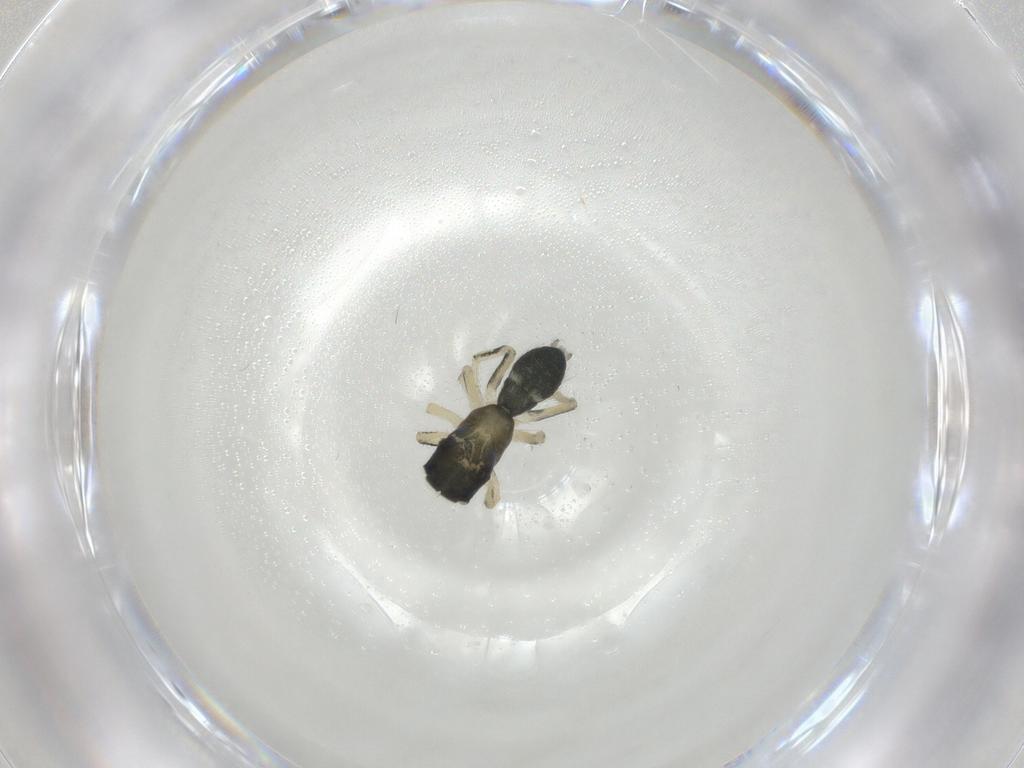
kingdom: Animalia
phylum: Arthropoda
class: Arachnida
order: Araneae
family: Salticidae
